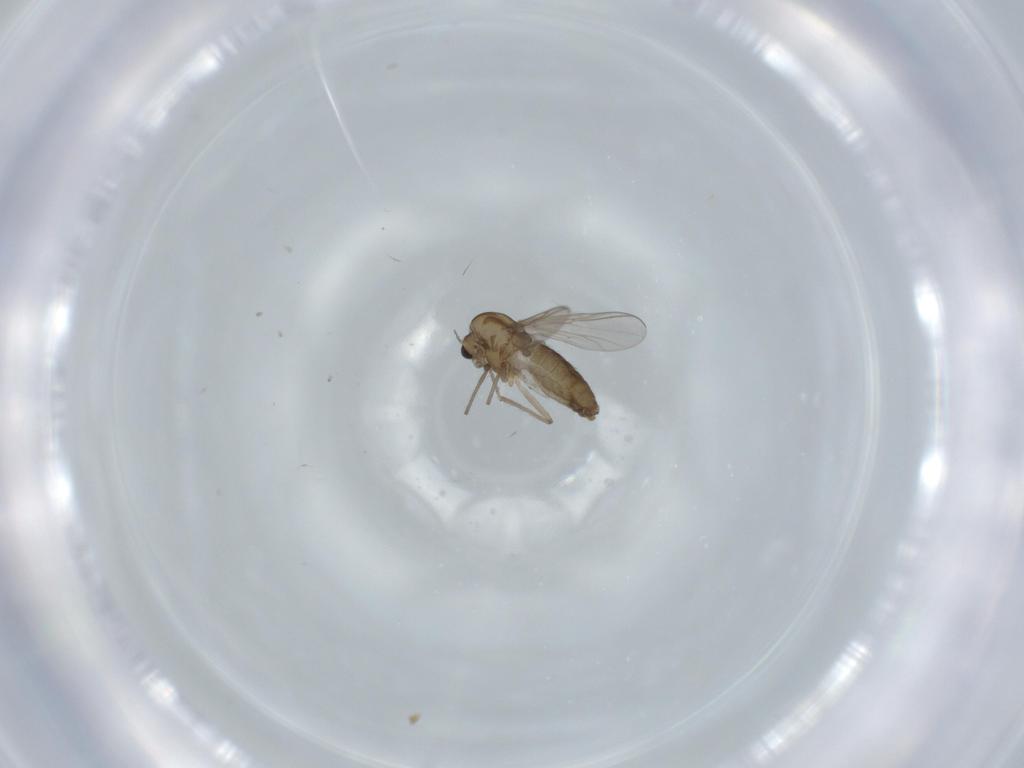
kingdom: Animalia
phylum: Arthropoda
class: Insecta
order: Diptera
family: Chironomidae
